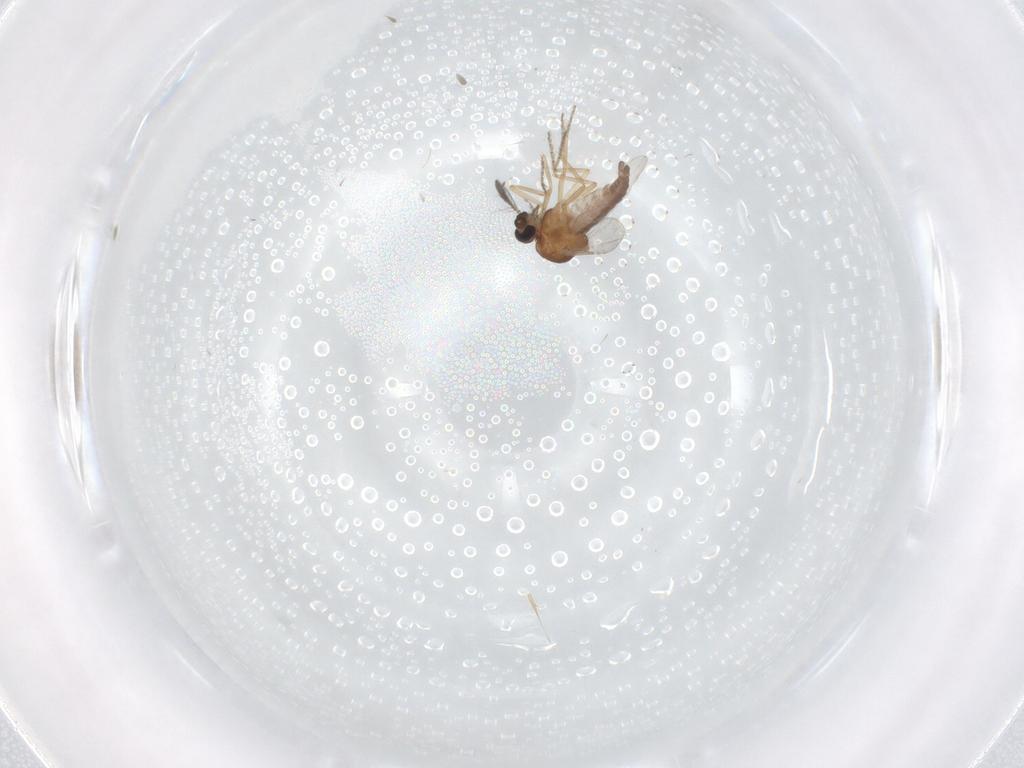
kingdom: Animalia
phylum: Arthropoda
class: Insecta
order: Diptera
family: Ceratopogonidae
